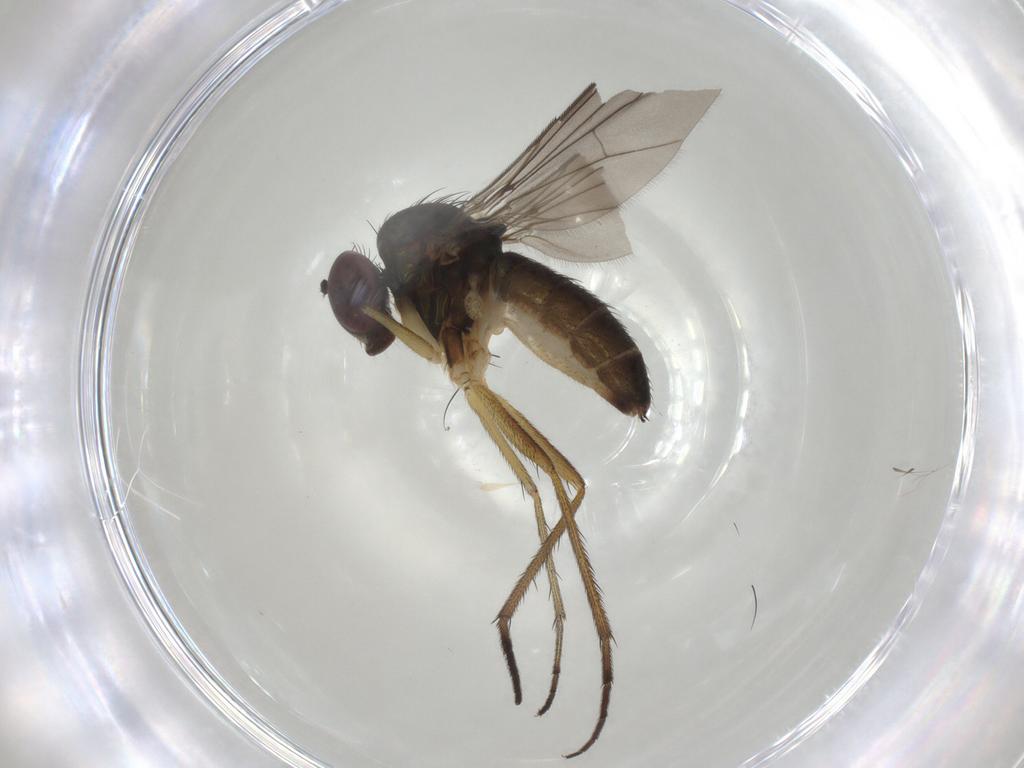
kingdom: Animalia
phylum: Arthropoda
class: Insecta
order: Diptera
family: Dolichopodidae
